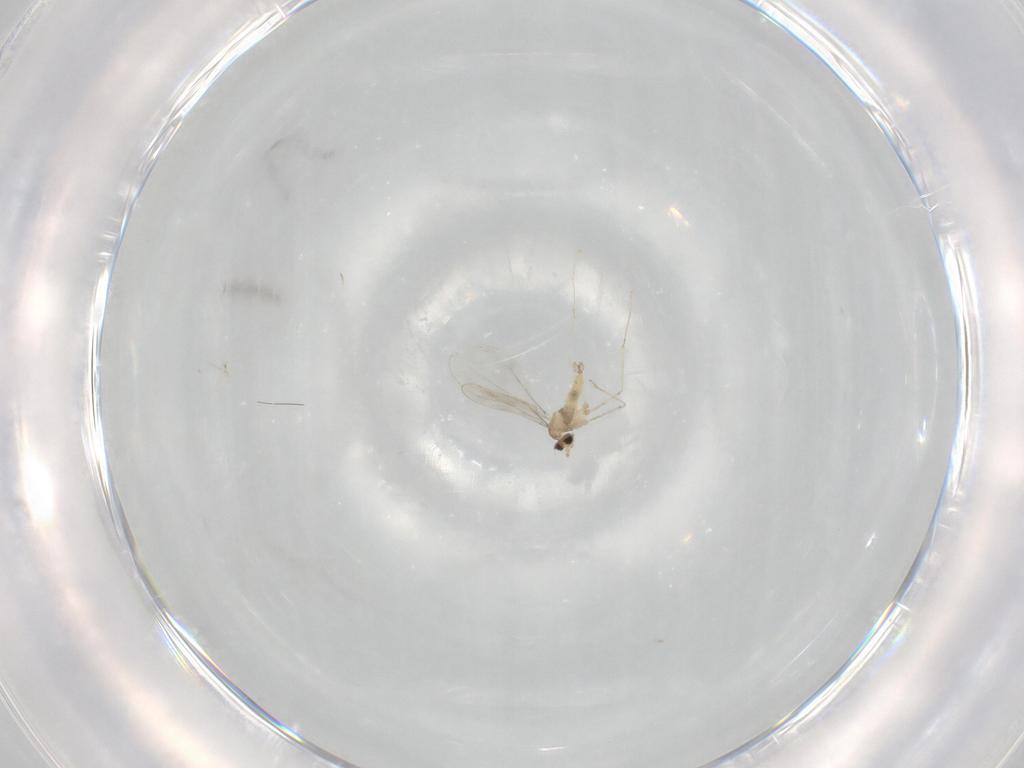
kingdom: Animalia
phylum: Arthropoda
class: Insecta
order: Diptera
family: Cecidomyiidae
